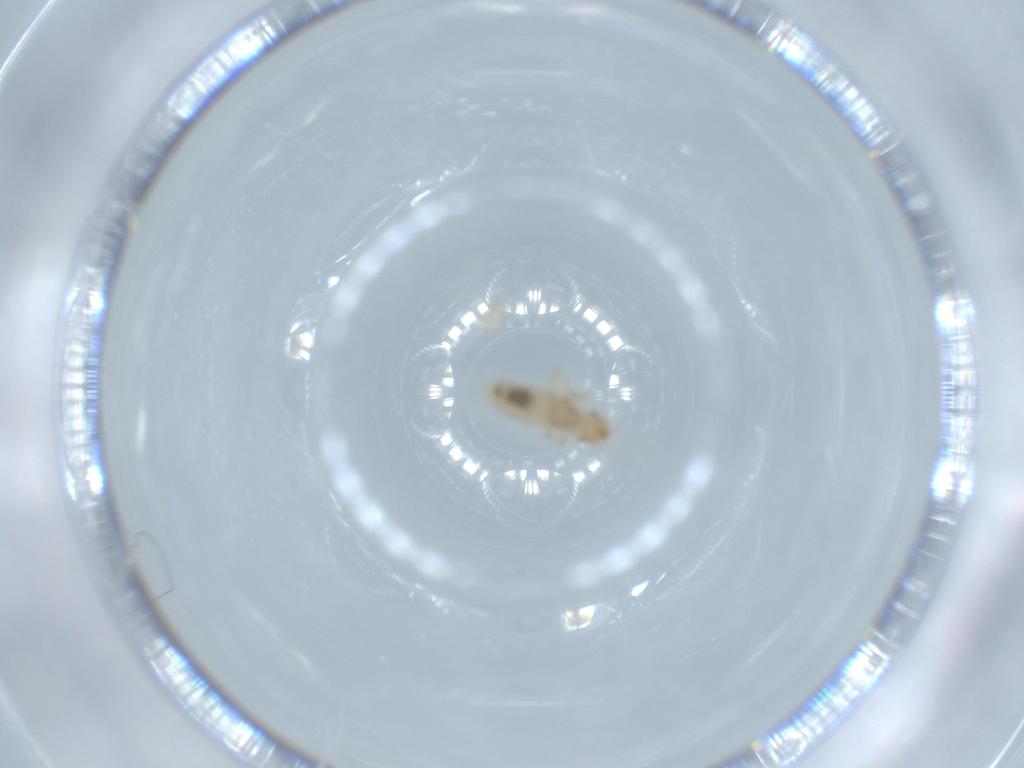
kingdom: Animalia
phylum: Arthropoda
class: Insecta
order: Psocodea
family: Liposcelididae
